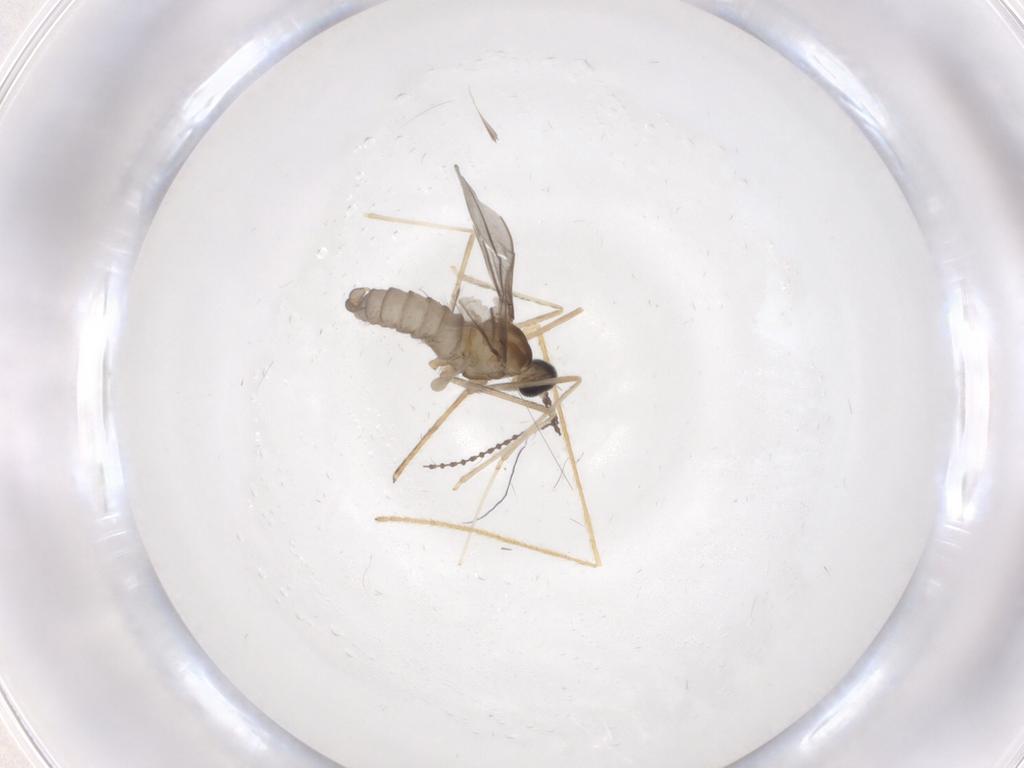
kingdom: Animalia
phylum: Arthropoda
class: Insecta
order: Diptera
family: Cecidomyiidae
